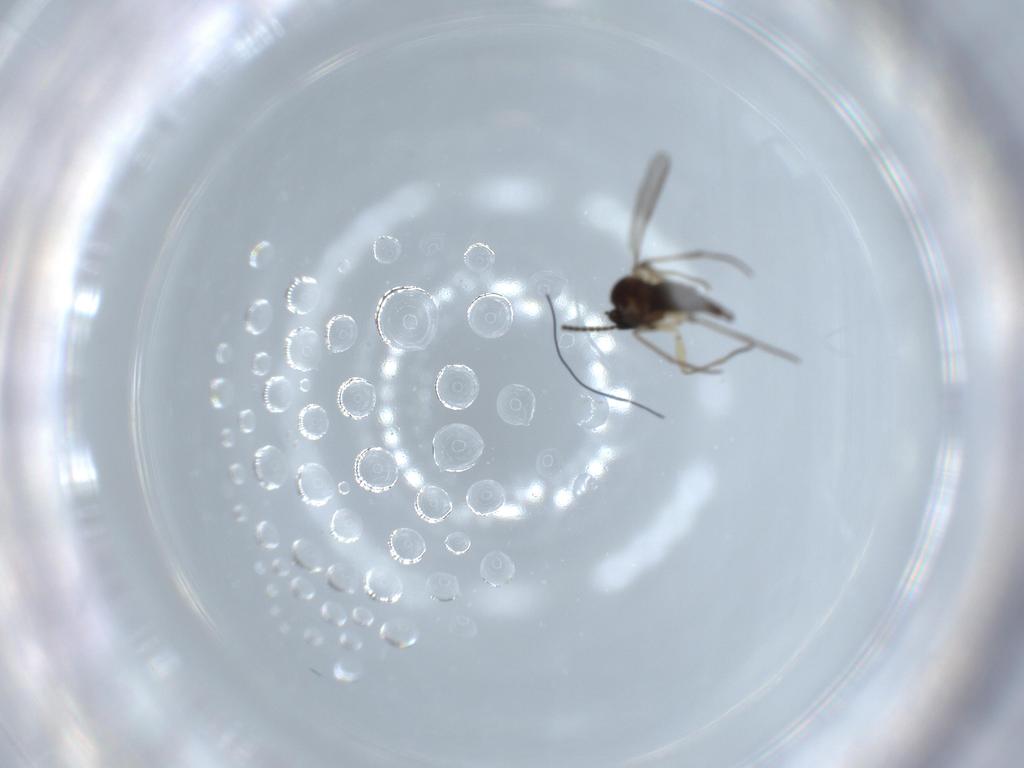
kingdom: Animalia
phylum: Arthropoda
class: Insecta
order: Diptera
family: Sciaridae
